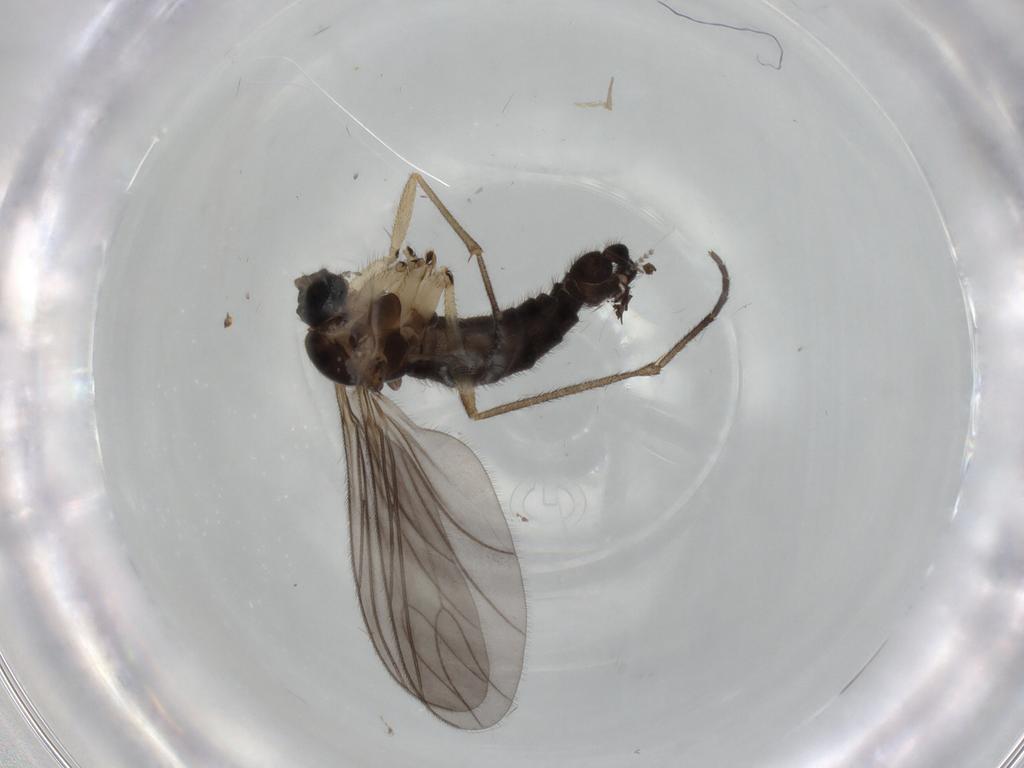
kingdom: Animalia
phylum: Arthropoda
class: Insecta
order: Diptera
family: Sciaridae
